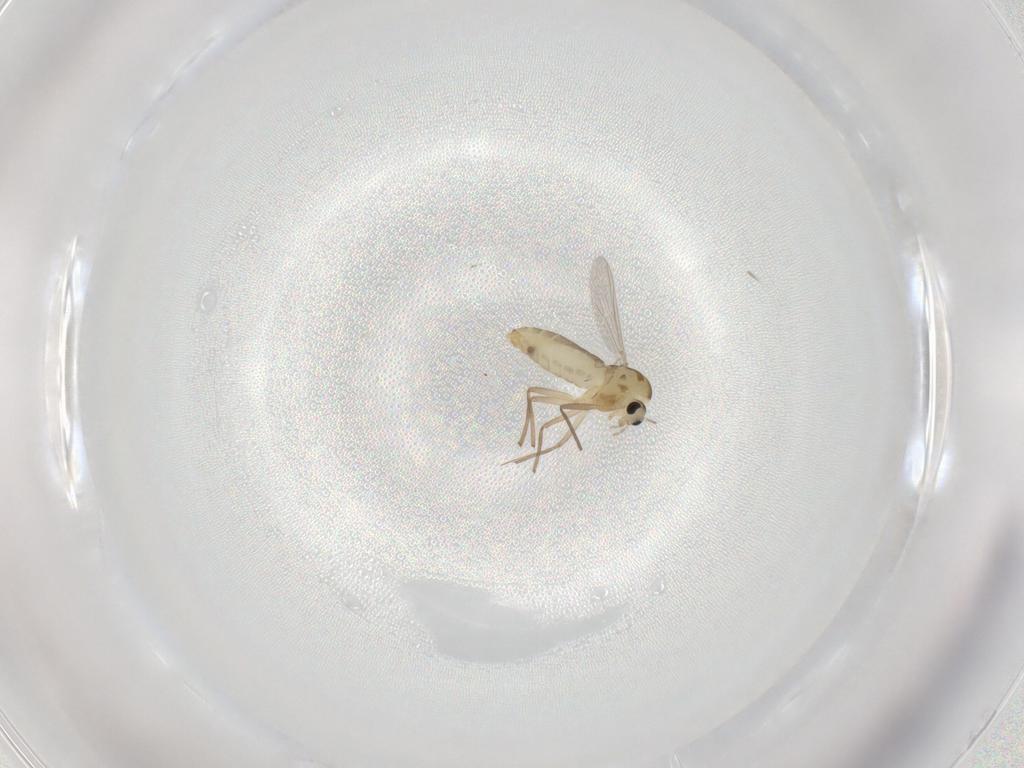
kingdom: Animalia
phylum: Arthropoda
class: Insecta
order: Diptera
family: Chironomidae
